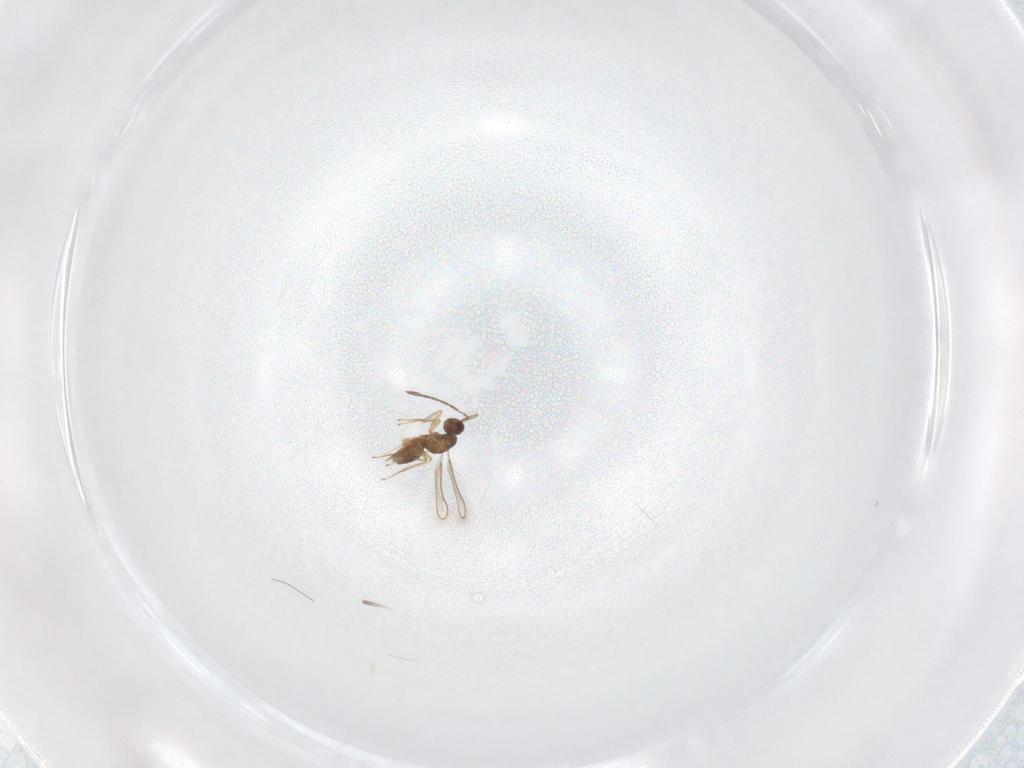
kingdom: Animalia
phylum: Arthropoda
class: Insecta
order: Hymenoptera
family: Mymaridae
